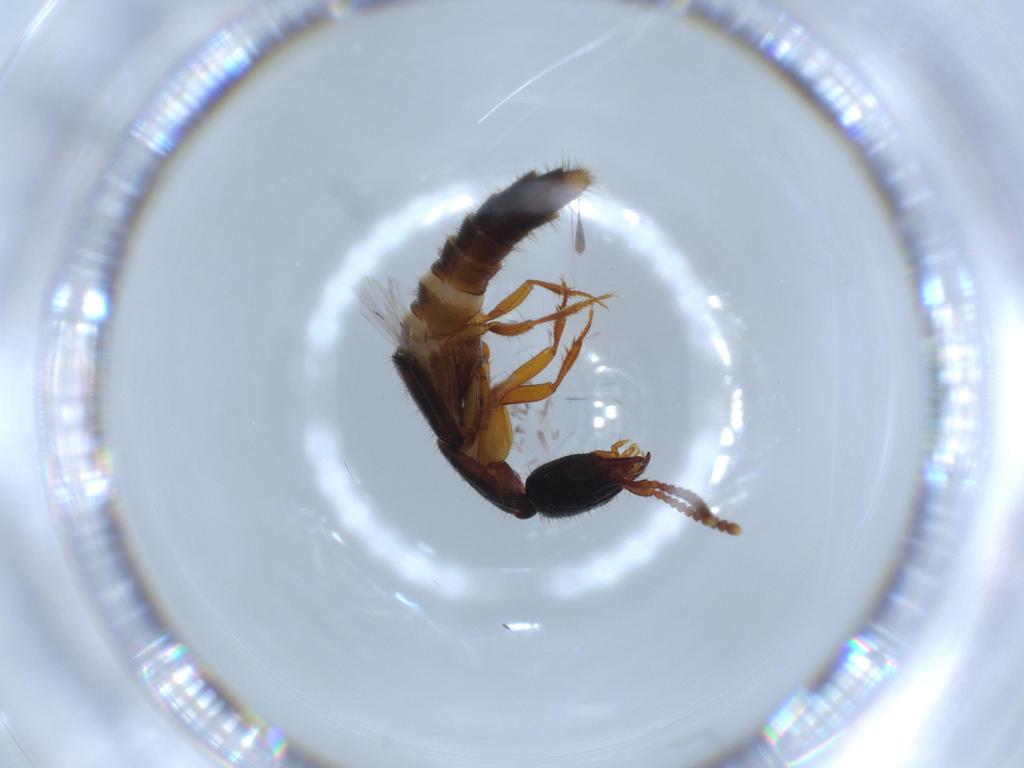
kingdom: Animalia
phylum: Arthropoda
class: Insecta
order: Coleoptera
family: Staphylinidae
